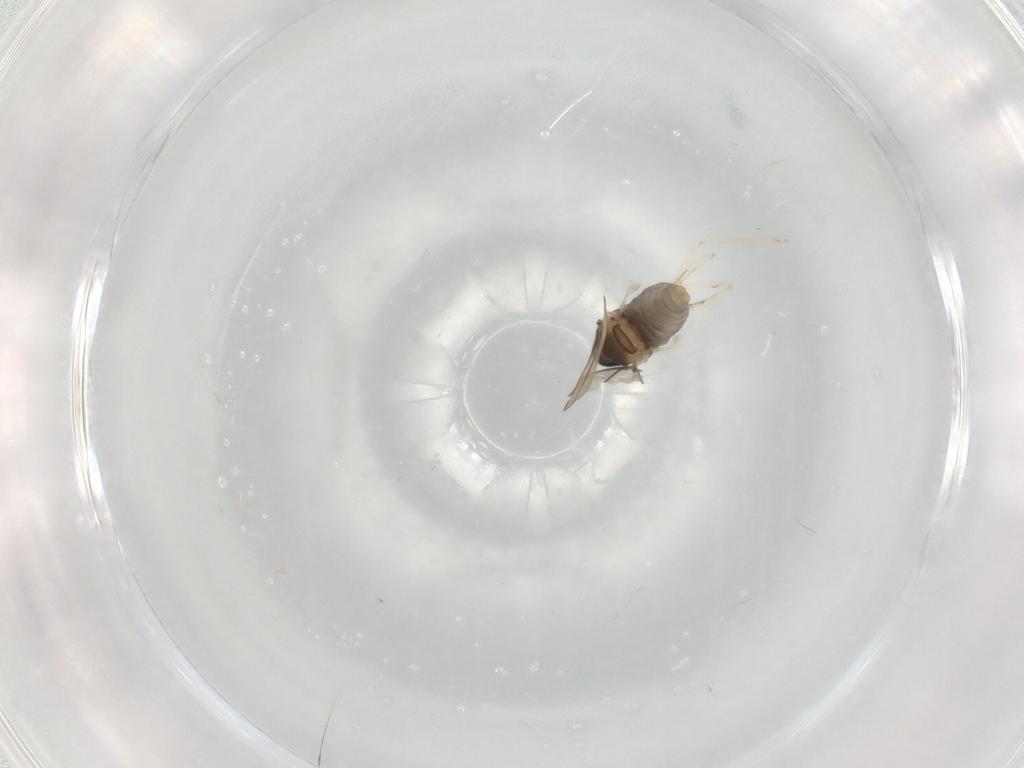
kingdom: Animalia
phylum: Arthropoda
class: Insecta
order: Diptera
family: Cecidomyiidae
